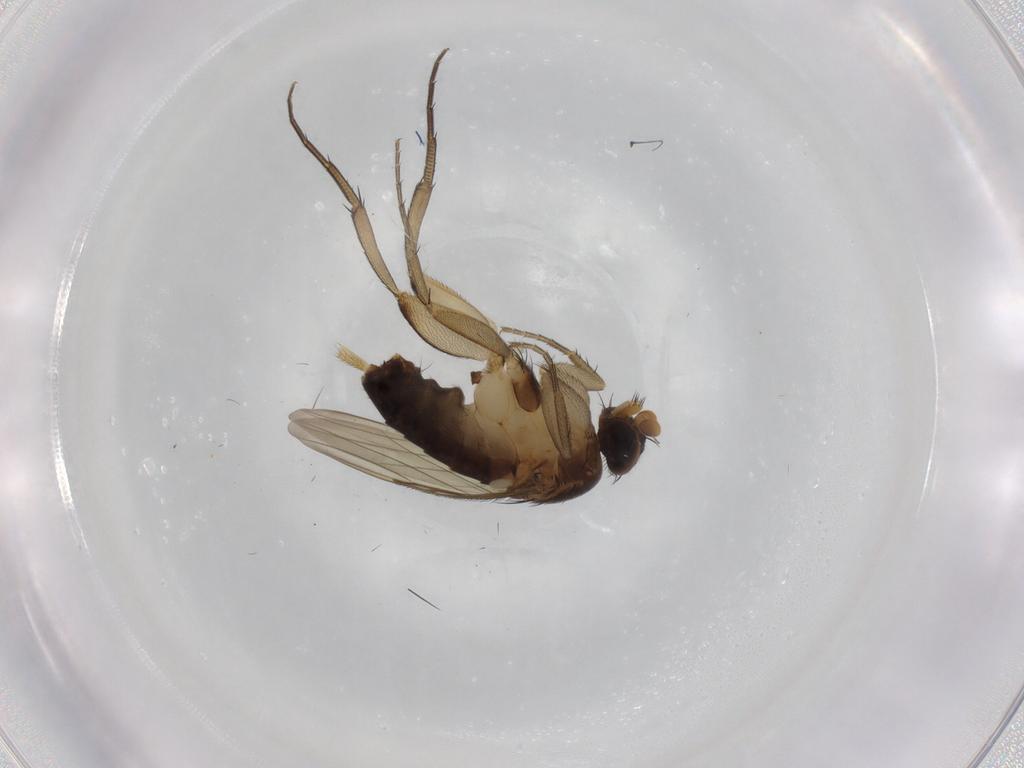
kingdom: Animalia
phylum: Arthropoda
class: Insecta
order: Diptera
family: Phoridae
